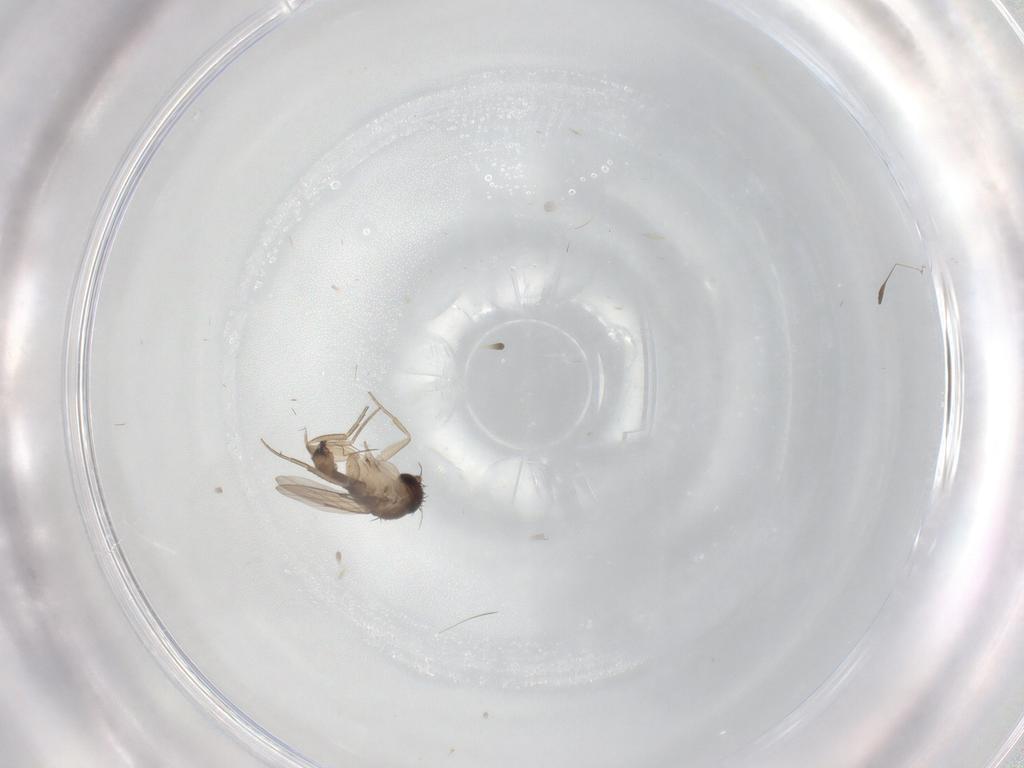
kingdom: Animalia
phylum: Arthropoda
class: Insecta
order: Diptera
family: Phoridae
